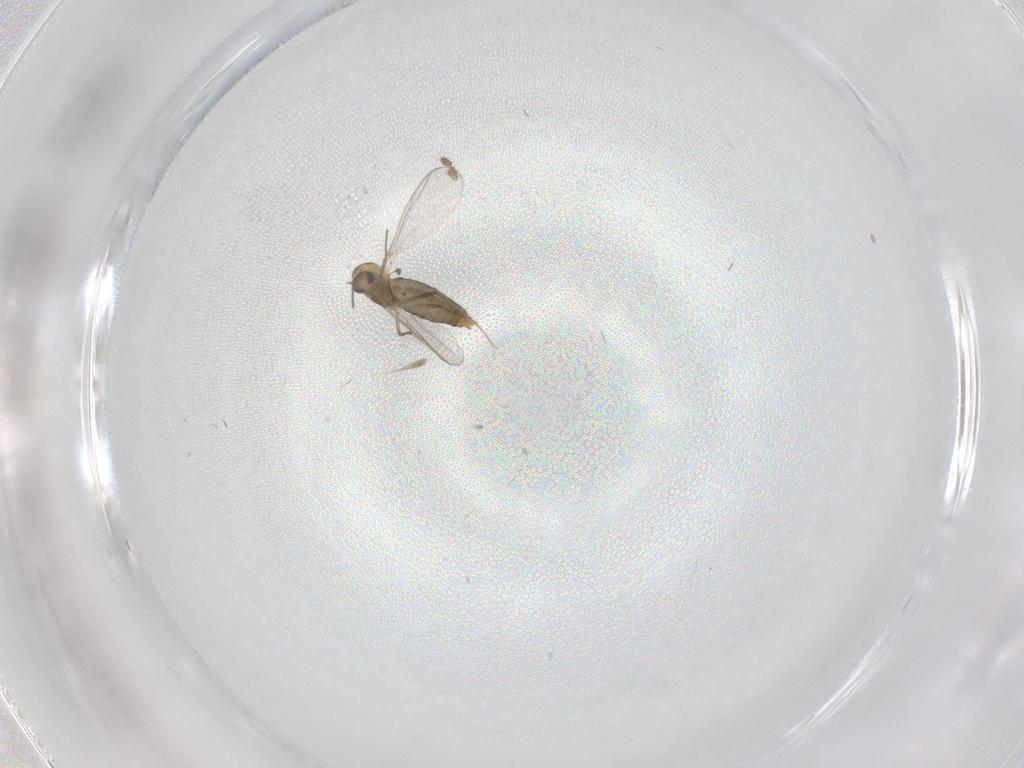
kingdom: Animalia
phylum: Arthropoda
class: Insecta
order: Diptera
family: Limoniidae
